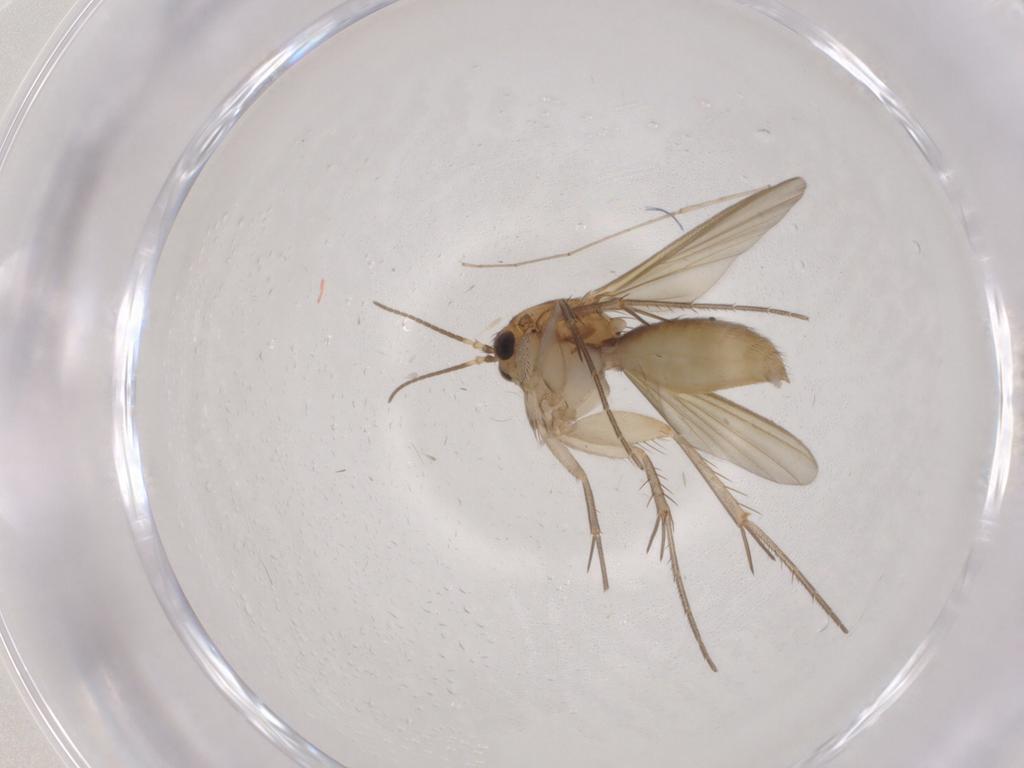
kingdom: Animalia
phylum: Arthropoda
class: Insecta
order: Diptera
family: Mycetophilidae
